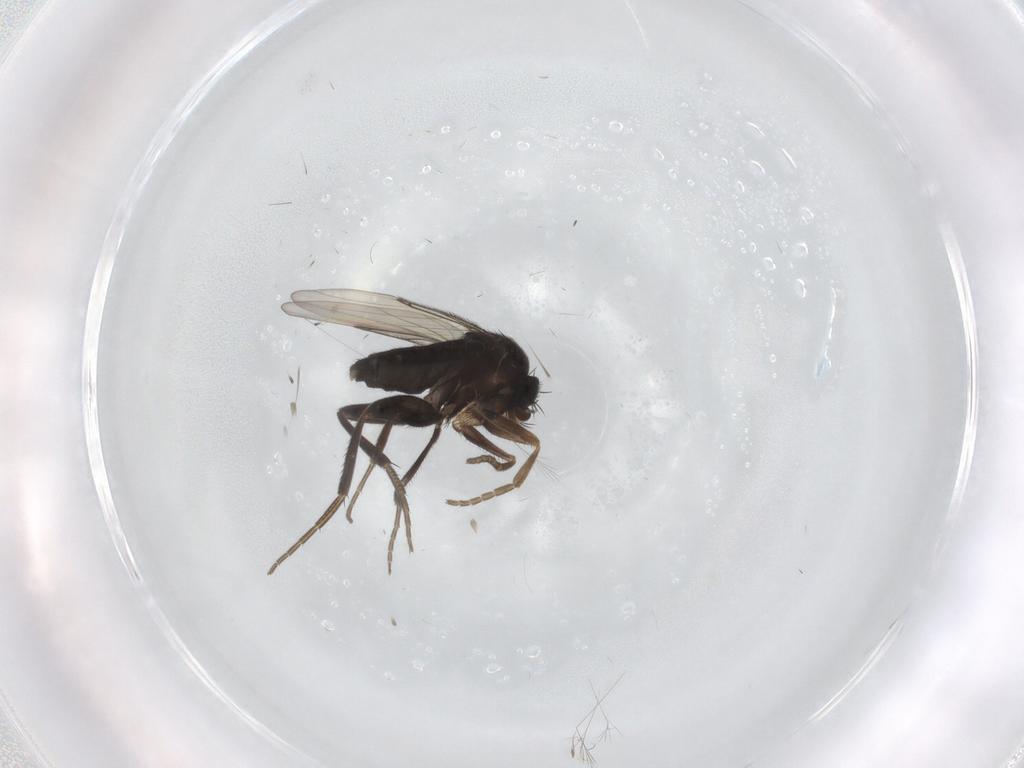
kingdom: Animalia
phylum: Arthropoda
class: Insecta
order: Diptera
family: Phoridae
